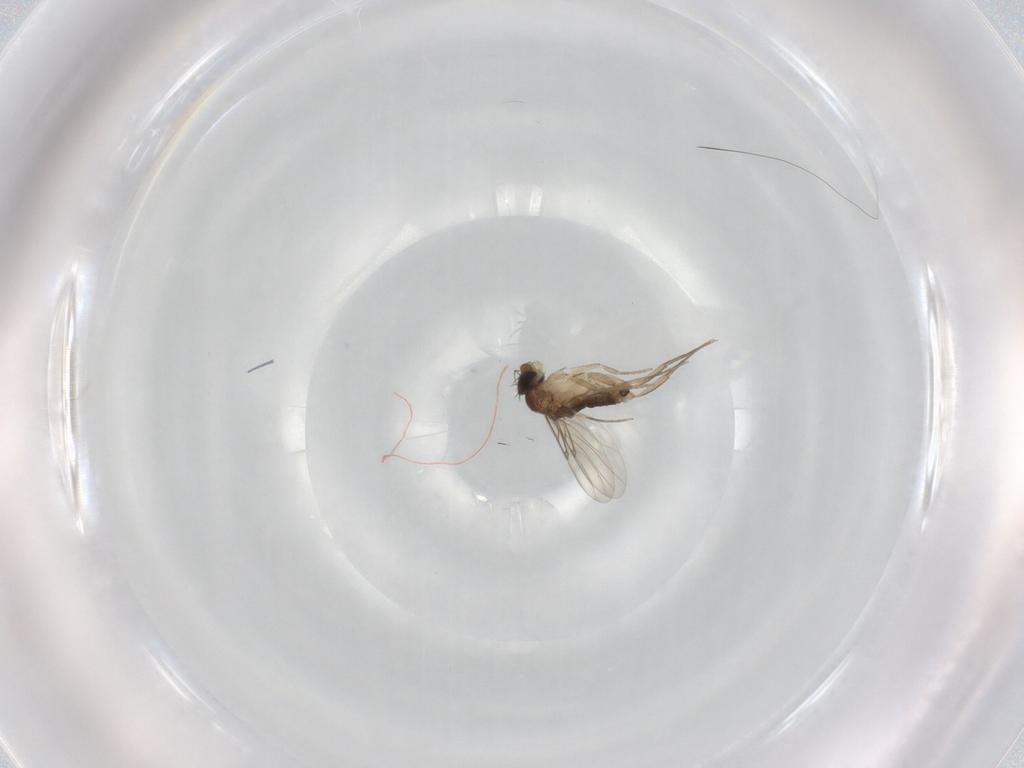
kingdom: Animalia
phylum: Arthropoda
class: Insecta
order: Diptera
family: Phoridae
